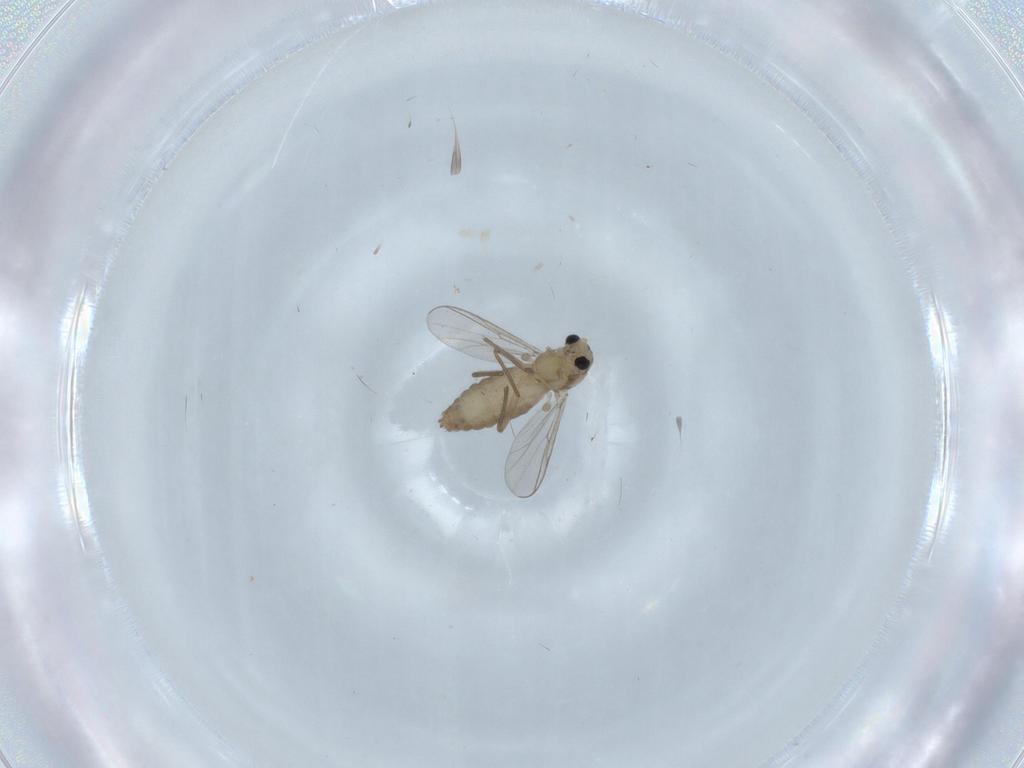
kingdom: Animalia
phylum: Arthropoda
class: Insecta
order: Diptera
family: Chironomidae
